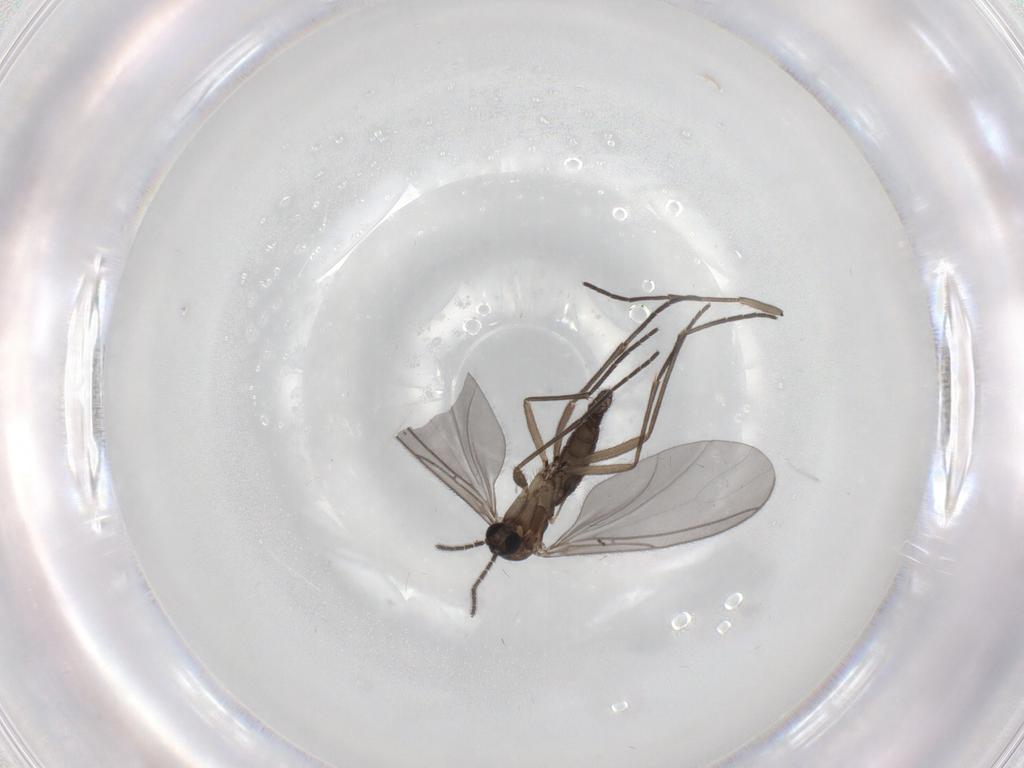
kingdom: Animalia
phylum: Arthropoda
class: Insecta
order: Diptera
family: Sciaridae
